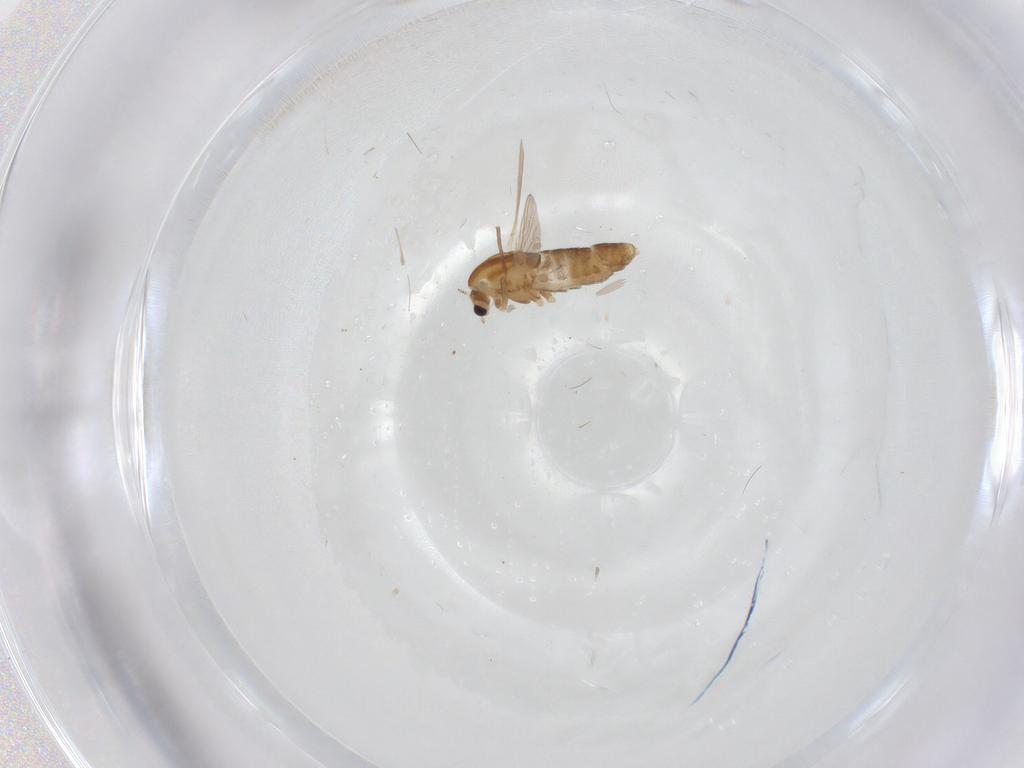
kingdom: Animalia
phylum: Arthropoda
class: Insecta
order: Diptera
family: Chironomidae
